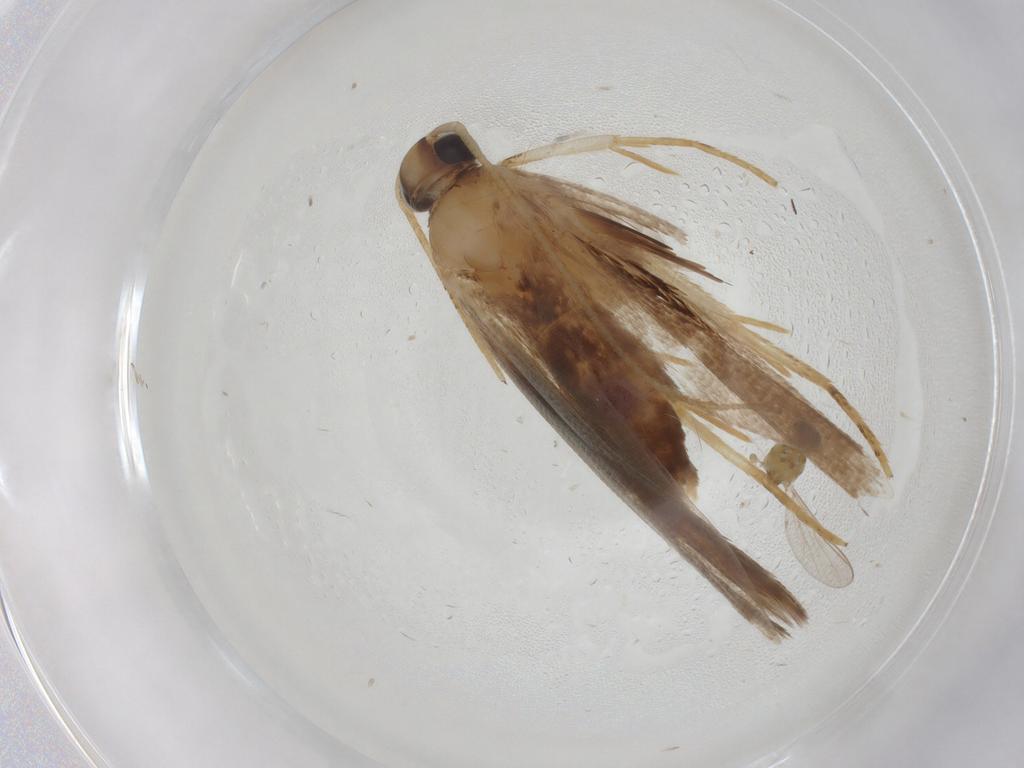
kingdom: Animalia
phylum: Arthropoda
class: Insecta
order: Lepidoptera
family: Gelechiidae
